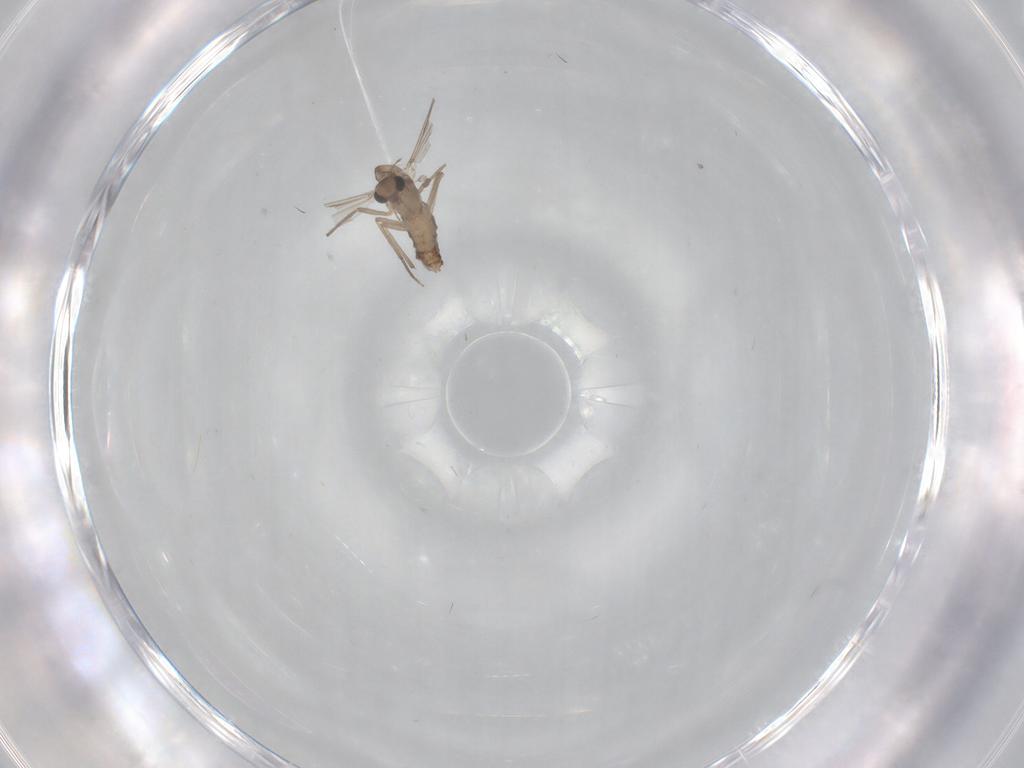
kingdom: Animalia
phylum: Arthropoda
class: Insecta
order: Diptera
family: Chironomidae
